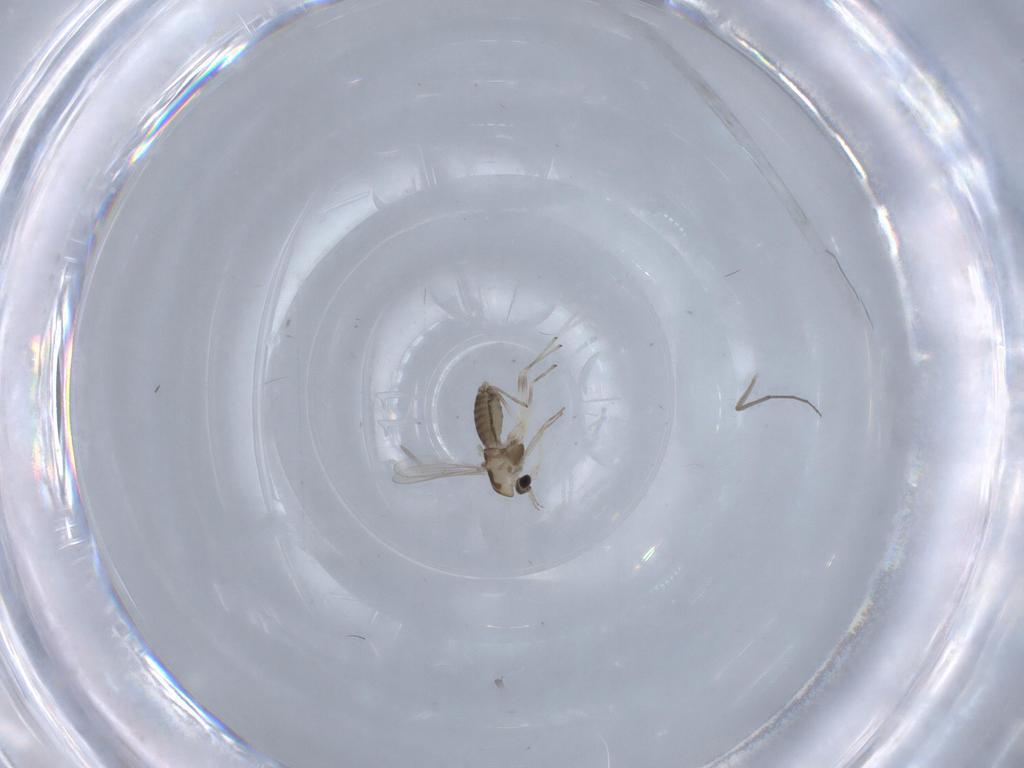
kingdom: Animalia
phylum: Arthropoda
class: Insecta
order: Diptera
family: Chironomidae
